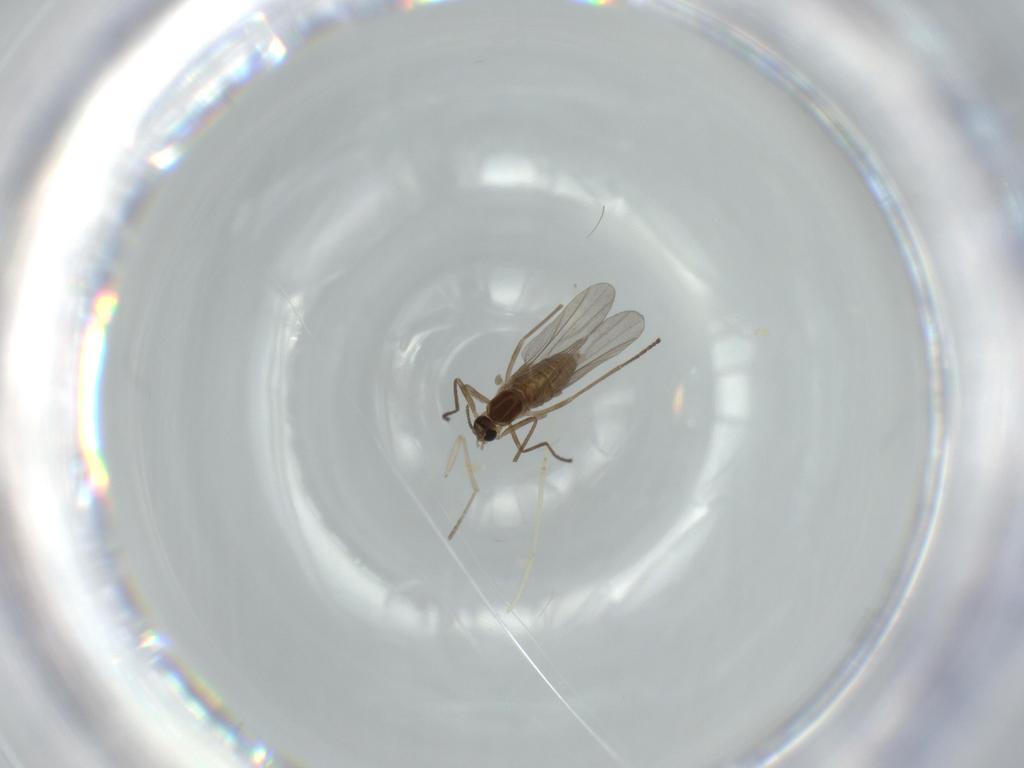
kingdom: Animalia
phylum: Arthropoda
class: Insecta
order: Diptera
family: Cecidomyiidae
